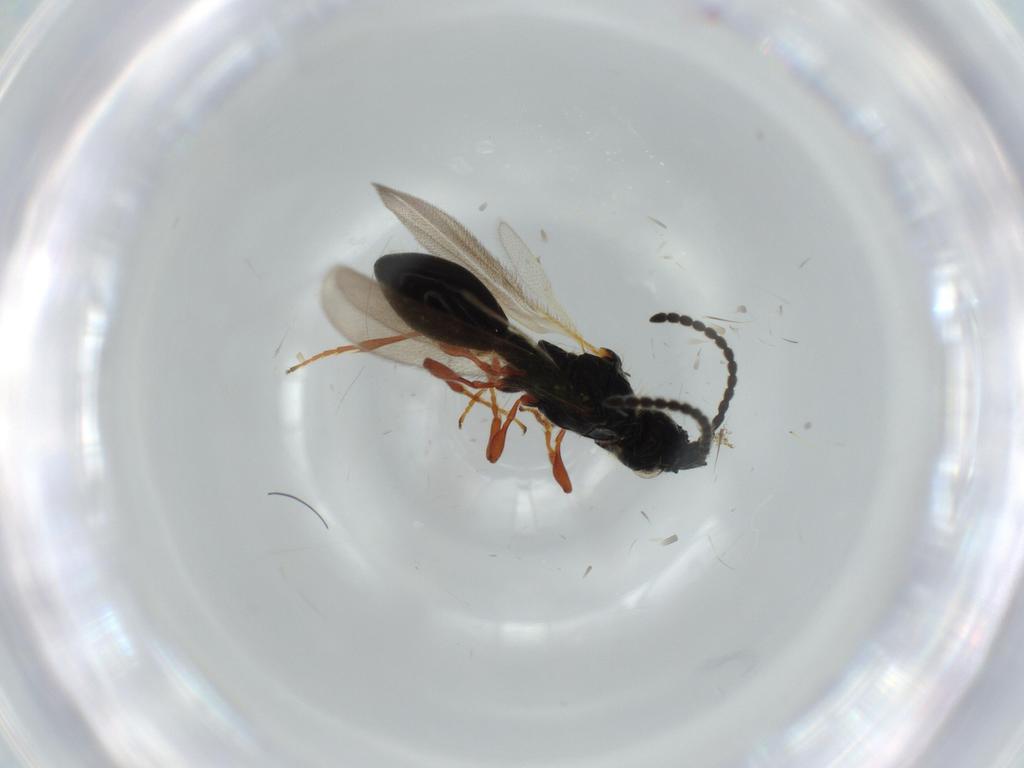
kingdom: Animalia
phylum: Arthropoda
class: Insecta
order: Hymenoptera
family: Diapriidae
